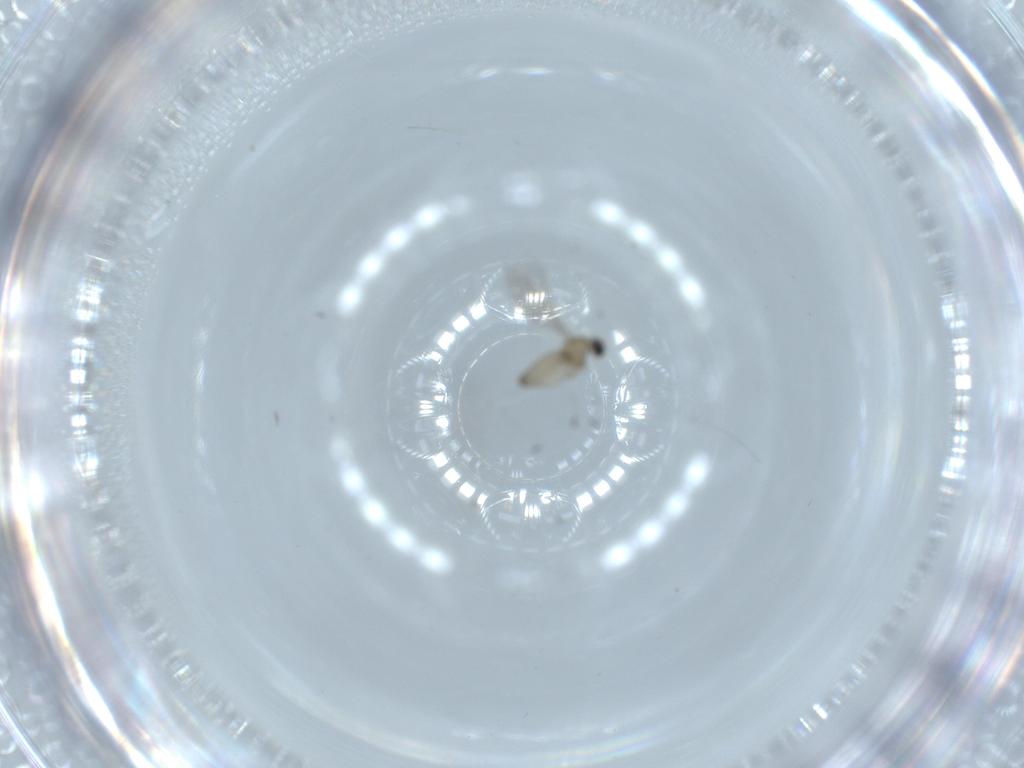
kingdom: Animalia
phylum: Arthropoda
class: Insecta
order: Diptera
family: Cecidomyiidae
